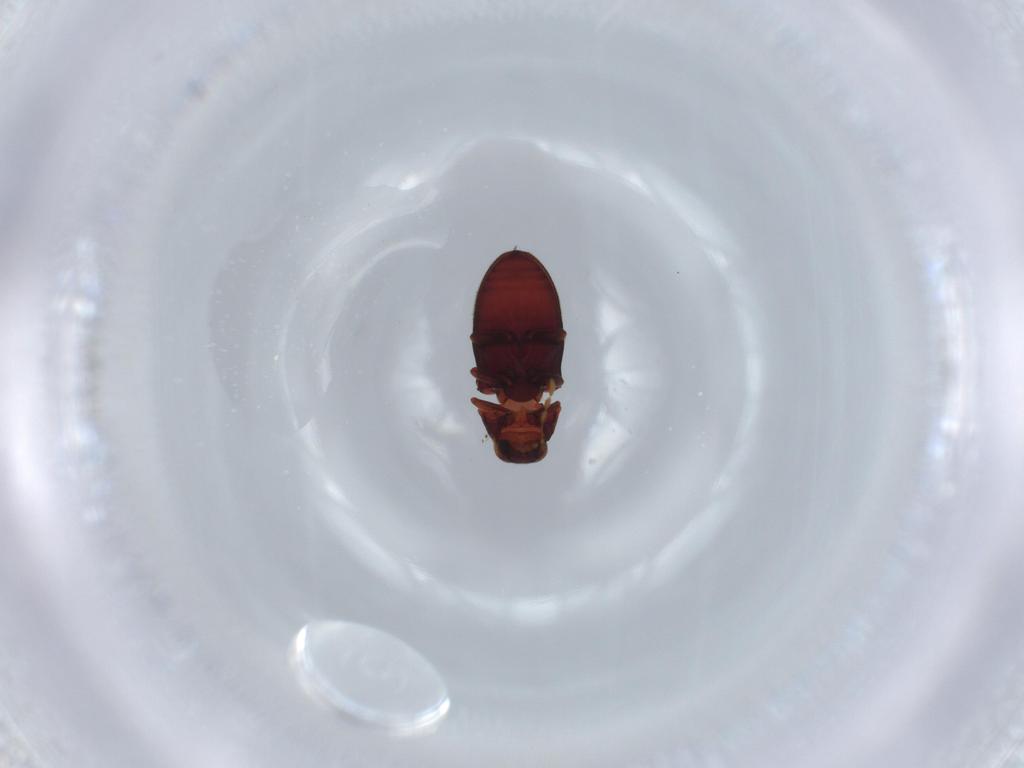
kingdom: Animalia
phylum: Arthropoda
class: Insecta
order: Coleoptera
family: Ptinidae
